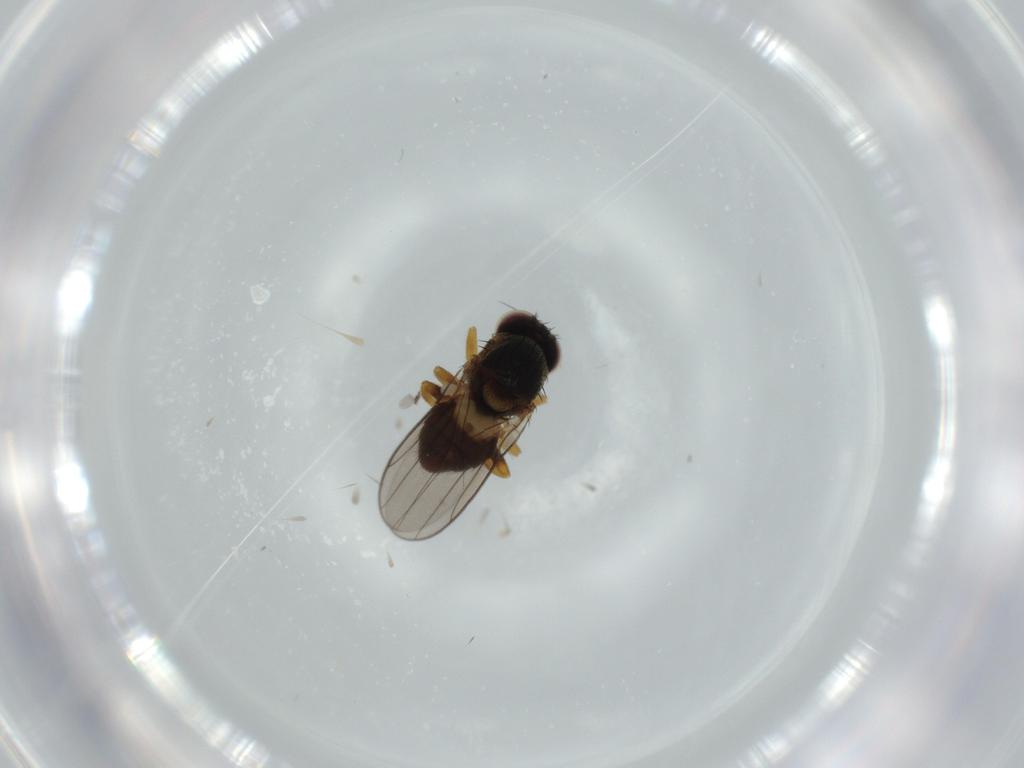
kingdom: Animalia
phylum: Arthropoda
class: Insecta
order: Diptera
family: Chloropidae
